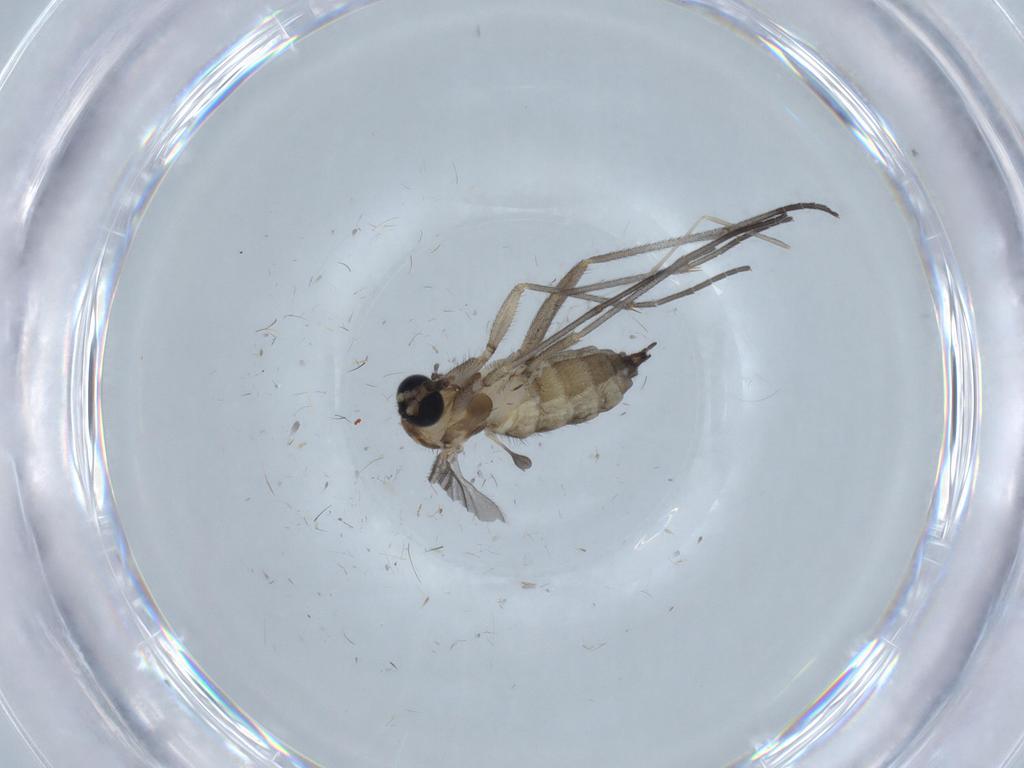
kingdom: Animalia
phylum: Arthropoda
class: Insecta
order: Diptera
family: Sciaridae
